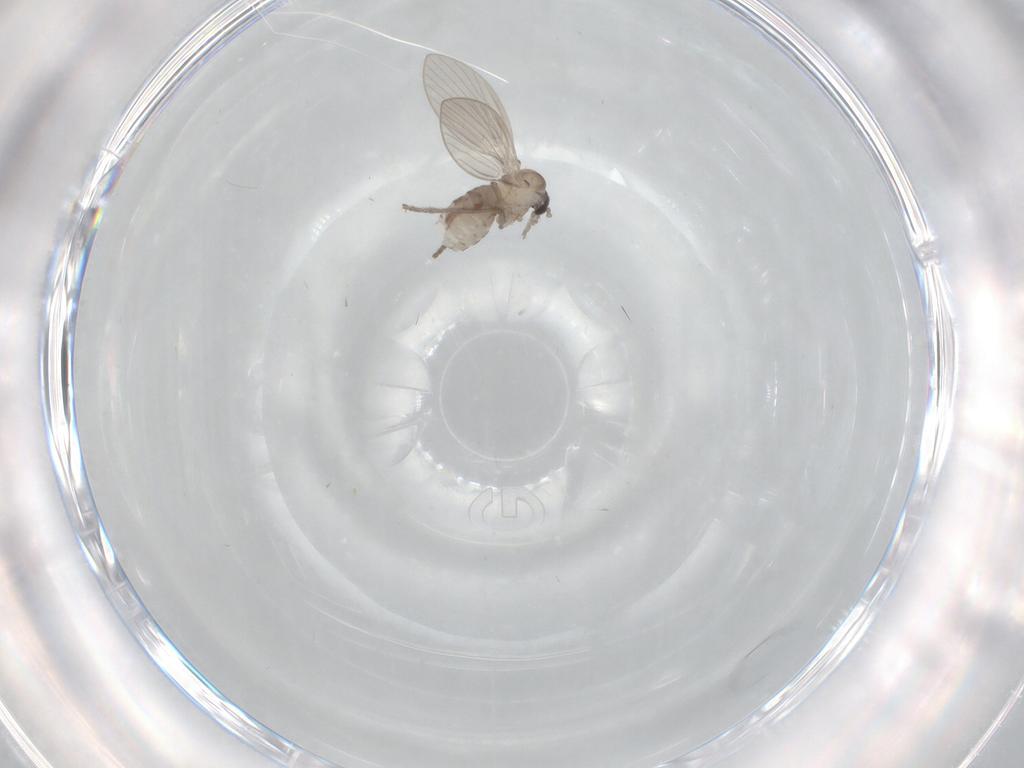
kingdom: Animalia
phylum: Arthropoda
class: Insecta
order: Diptera
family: Psychodidae
